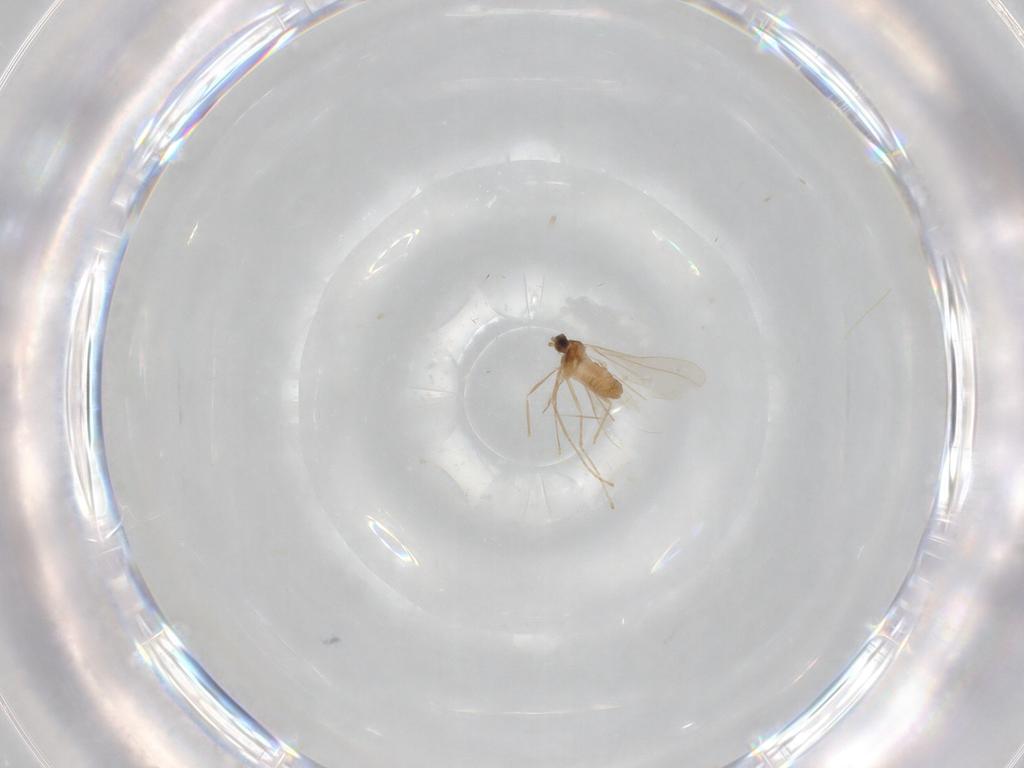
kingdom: Animalia
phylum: Arthropoda
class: Insecta
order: Diptera
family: Cecidomyiidae
